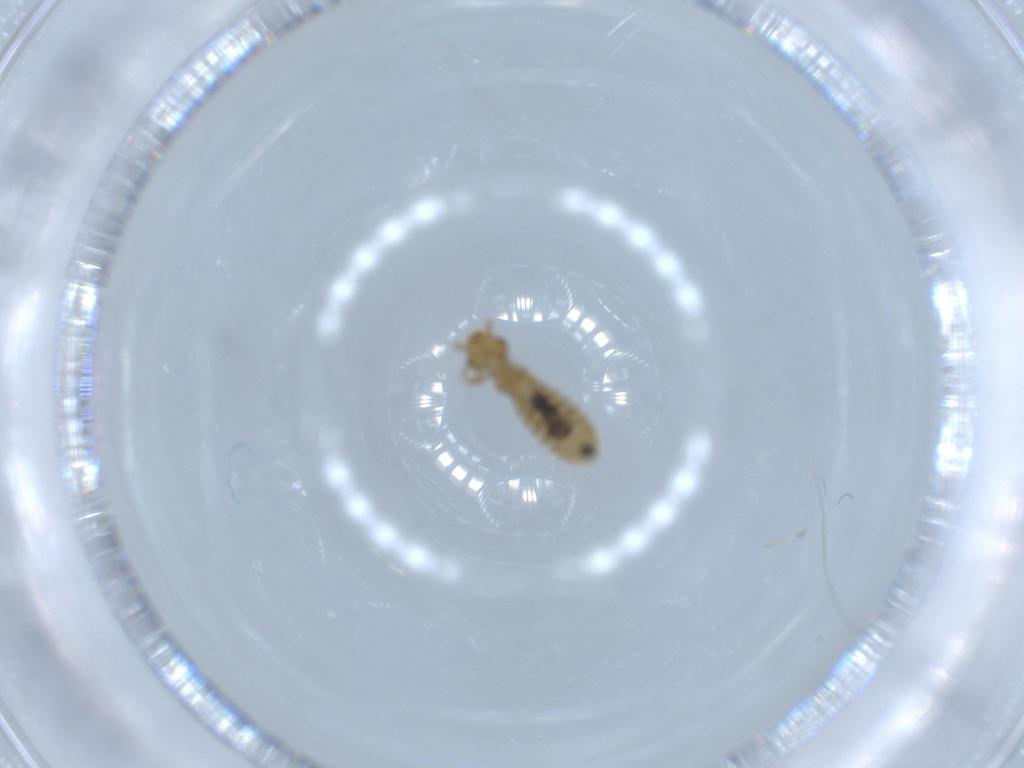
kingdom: Animalia
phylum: Arthropoda
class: Insecta
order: Psocodea
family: Liposcelididae
